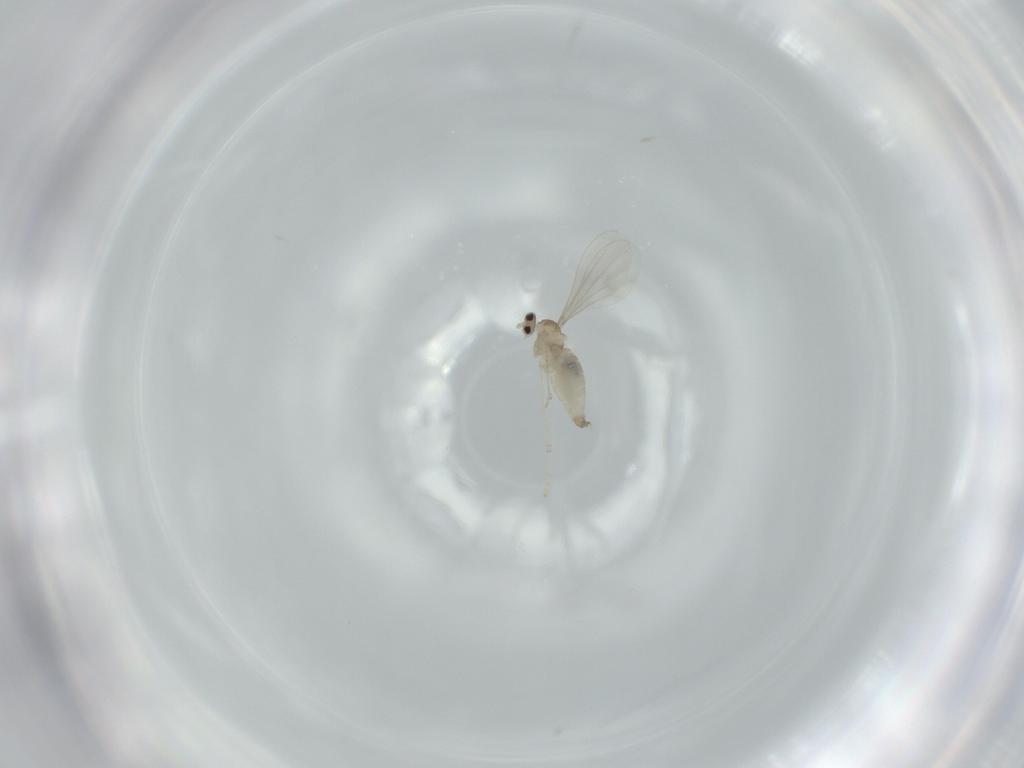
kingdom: Animalia
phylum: Arthropoda
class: Insecta
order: Diptera
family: Cecidomyiidae
